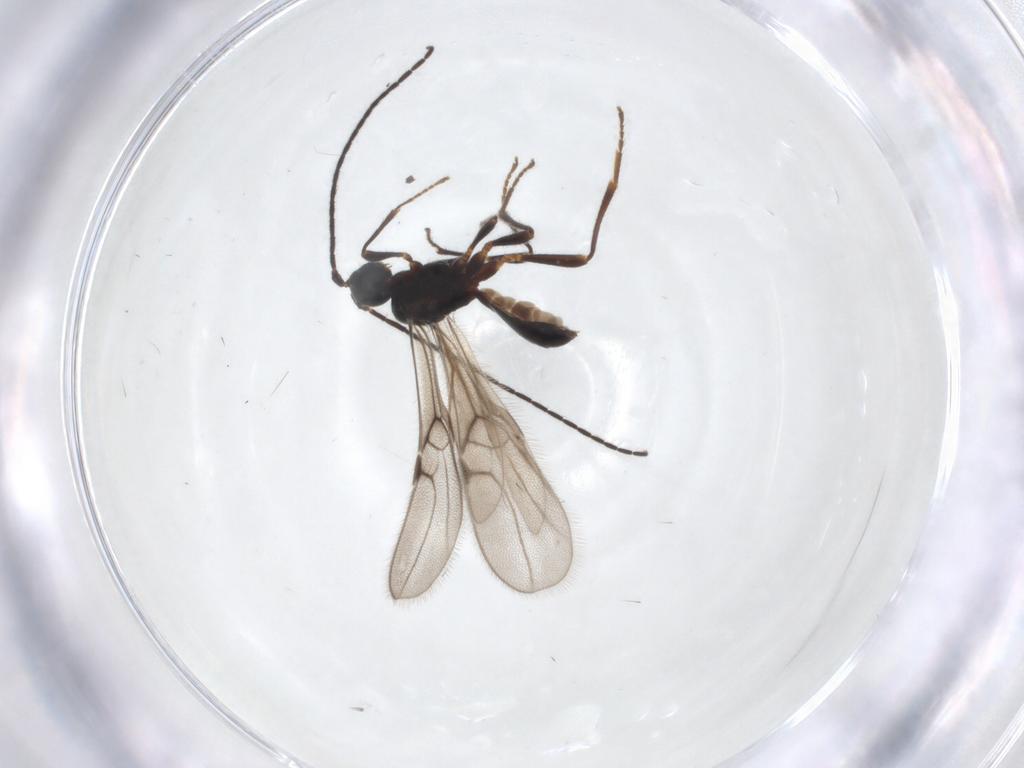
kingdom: Animalia
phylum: Arthropoda
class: Insecta
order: Hymenoptera
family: Braconidae
